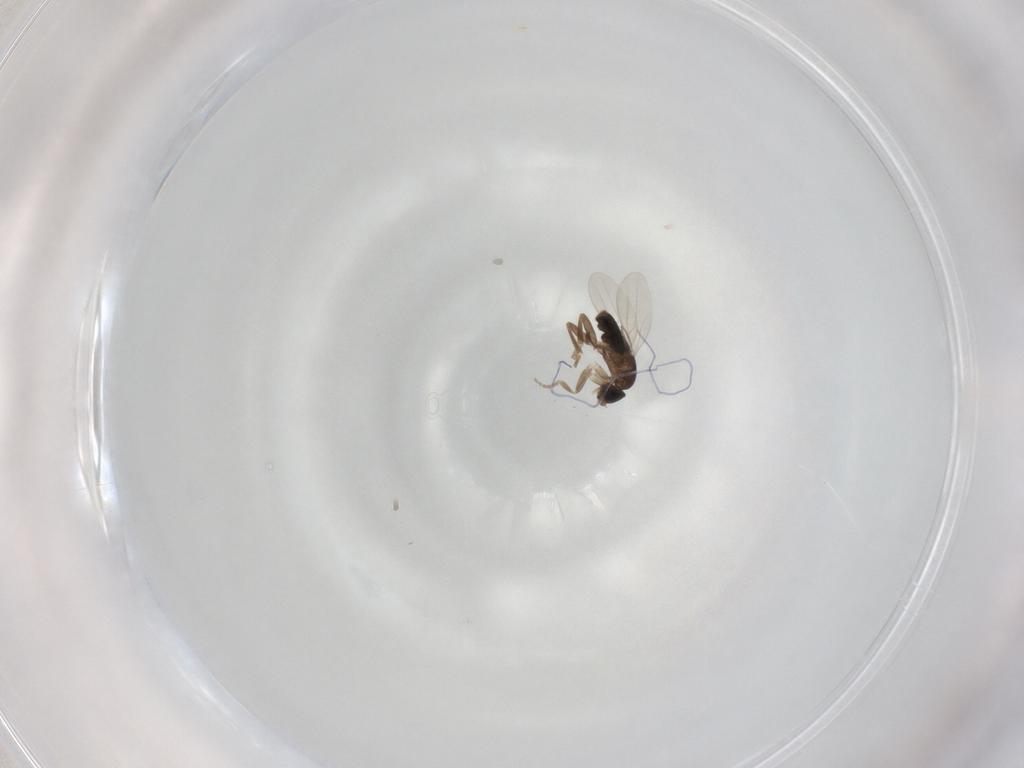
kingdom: Animalia
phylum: Arthropoda
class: Insecta
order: Diptera
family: Phoridae
